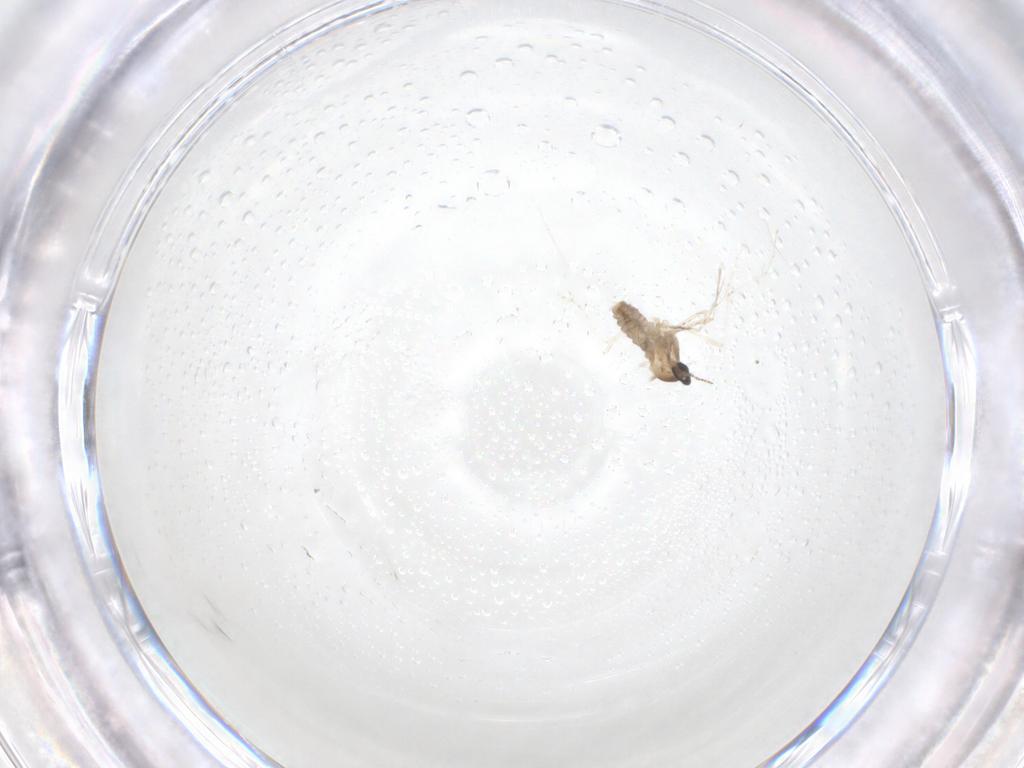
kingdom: Animalia
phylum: Arthropoda
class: Insecta
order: Diptera
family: Cecidomyiidae
